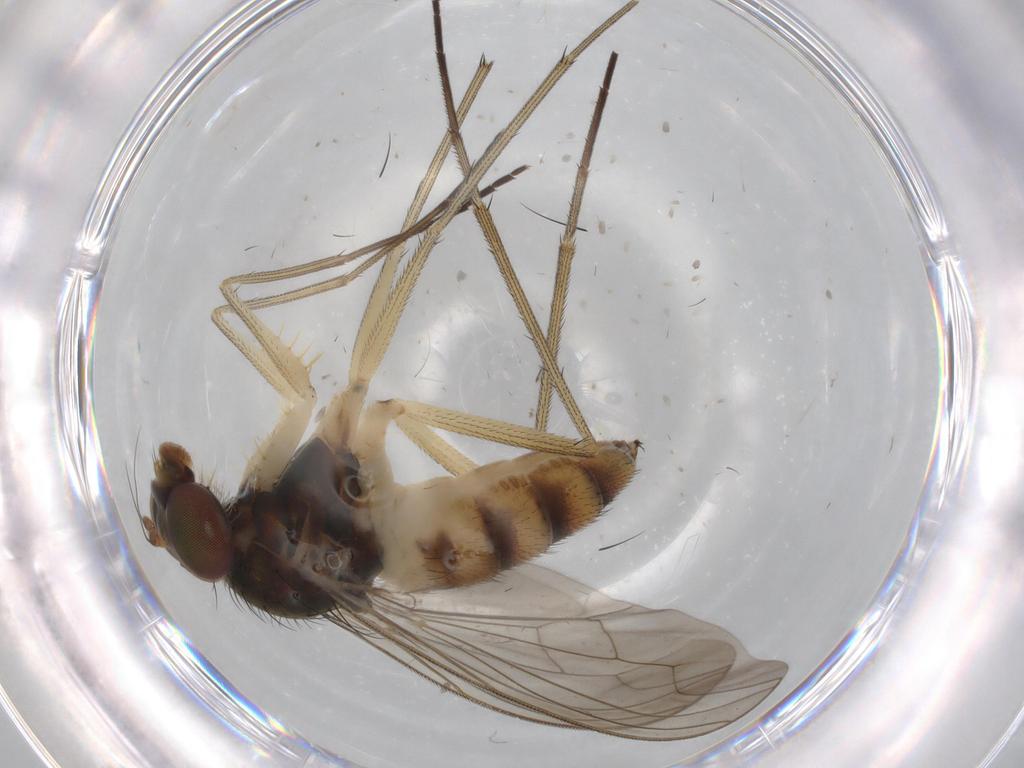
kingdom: Animalia
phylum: Arthropoda
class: Insecta
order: Diptera
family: Dolichopodidae
